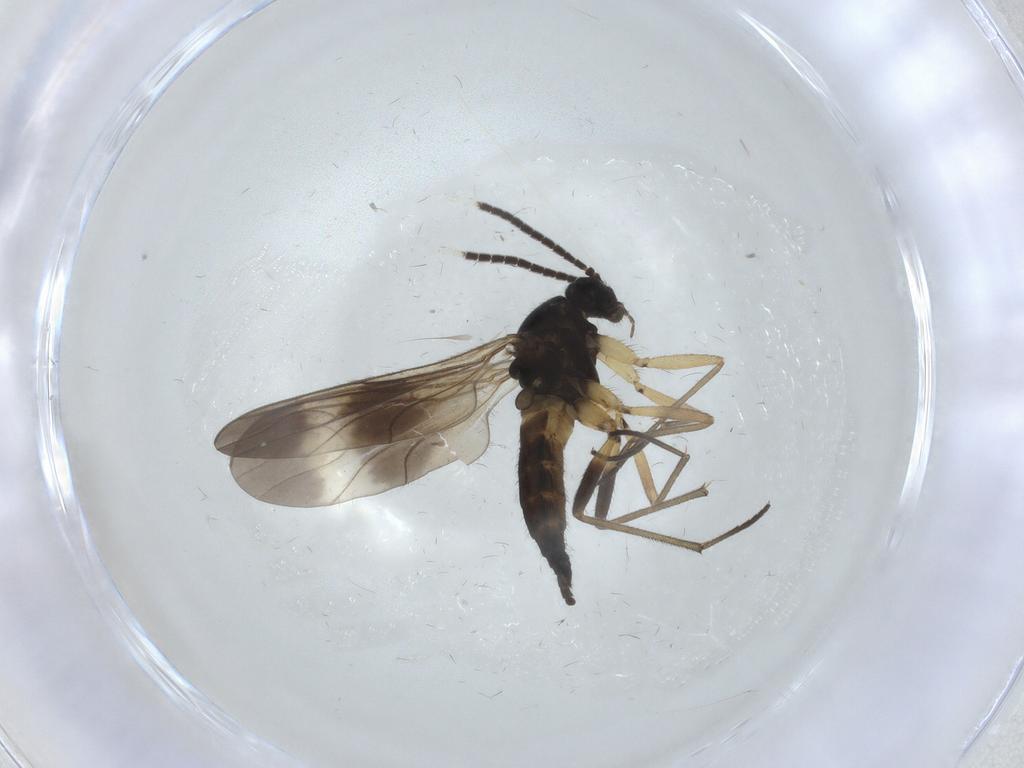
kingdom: Animalia
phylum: Arthropoda
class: Insecta
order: Diptera
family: Sciaridae
